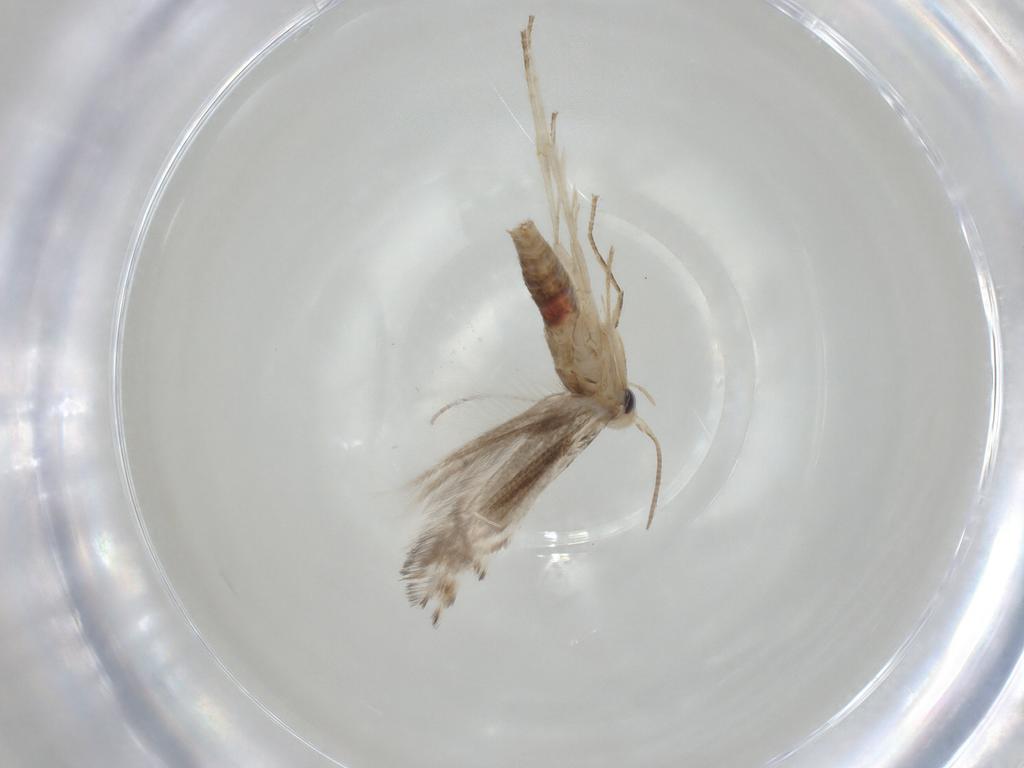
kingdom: Animalia
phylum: Arthropoda
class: Insecta
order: Lepidoptera
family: Gracillariidae
